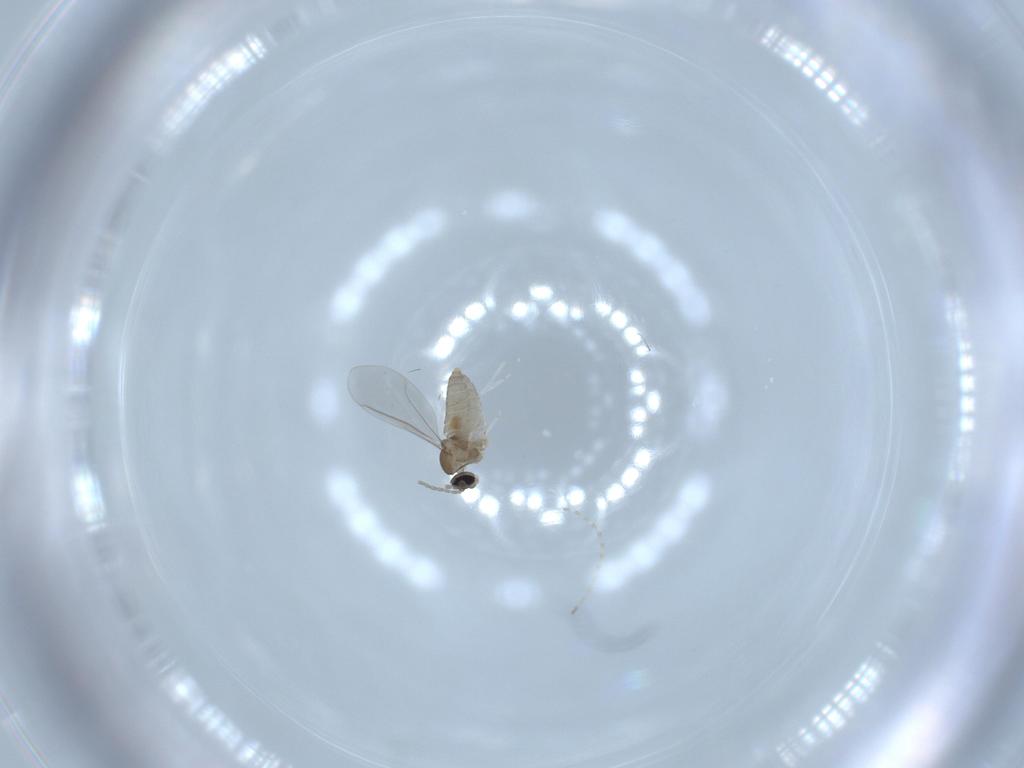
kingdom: Animalia
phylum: Arthropoda
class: Insecta
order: Diptera
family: Cecidomyiidae
